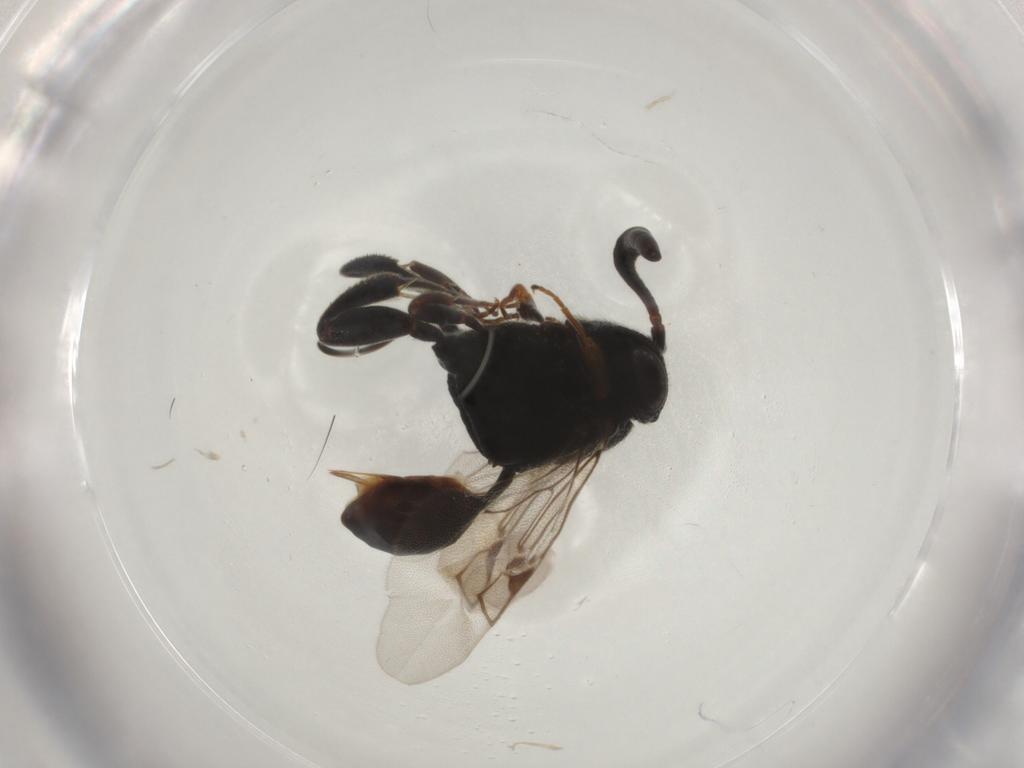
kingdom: Animalia
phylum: Arthropoda
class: Insecta
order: Hymenoptera
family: Evaniidae
